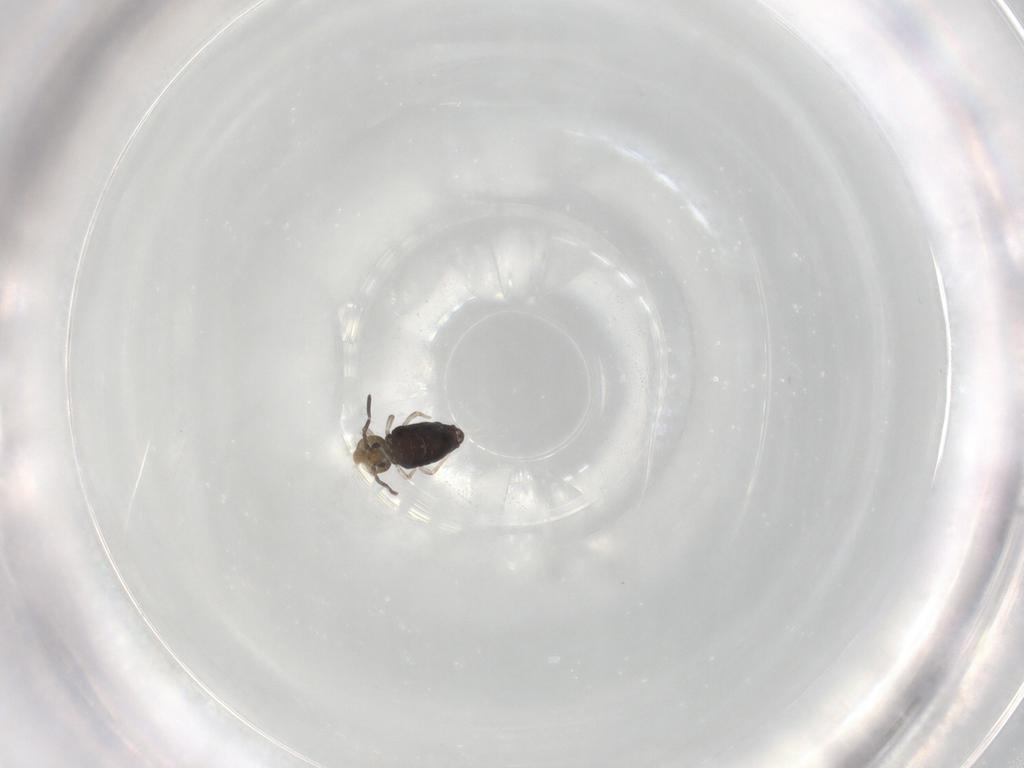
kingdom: Animalia
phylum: Arthropoda
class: Collembola
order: Symphypleona
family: Katiannidae
